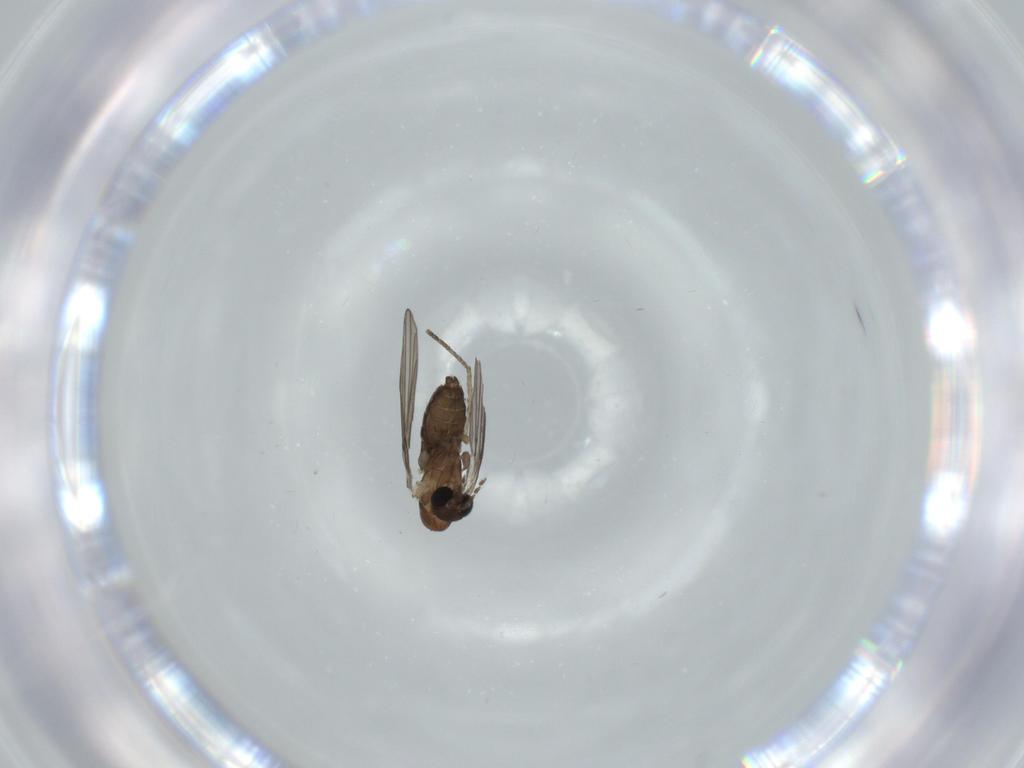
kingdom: Animalia
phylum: Arthropoda
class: Insecta
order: Diptera
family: Psychodidae
